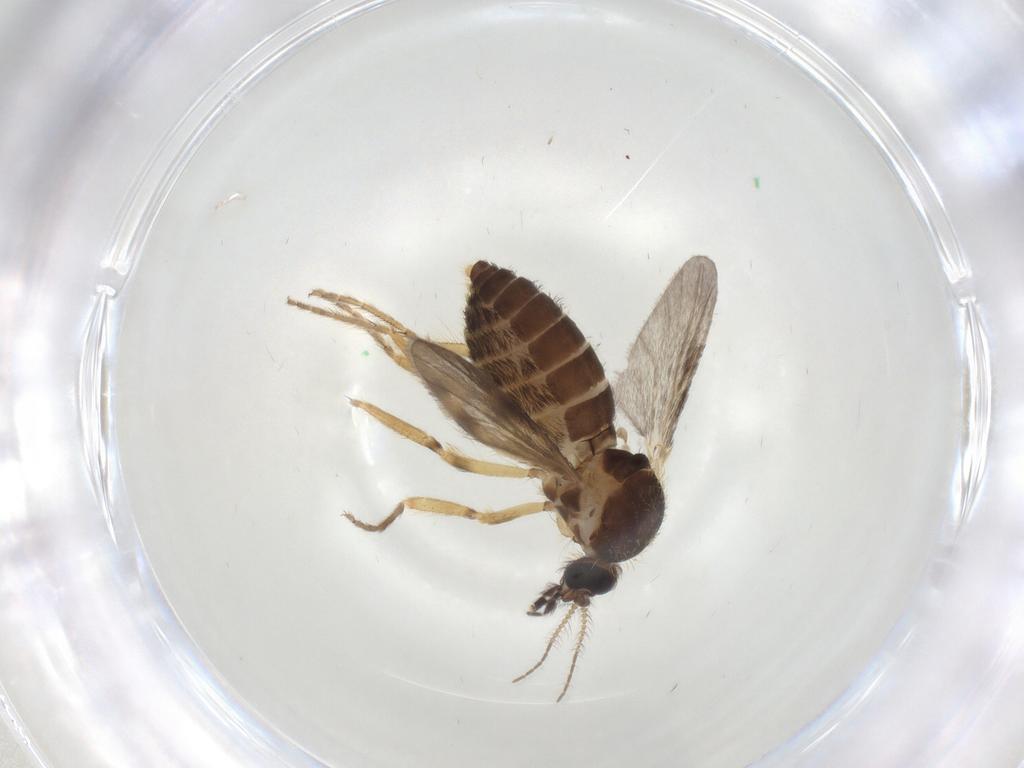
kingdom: Animalia
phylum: Arthropoda
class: Insecta
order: Diptera
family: Ceratopogonidae
